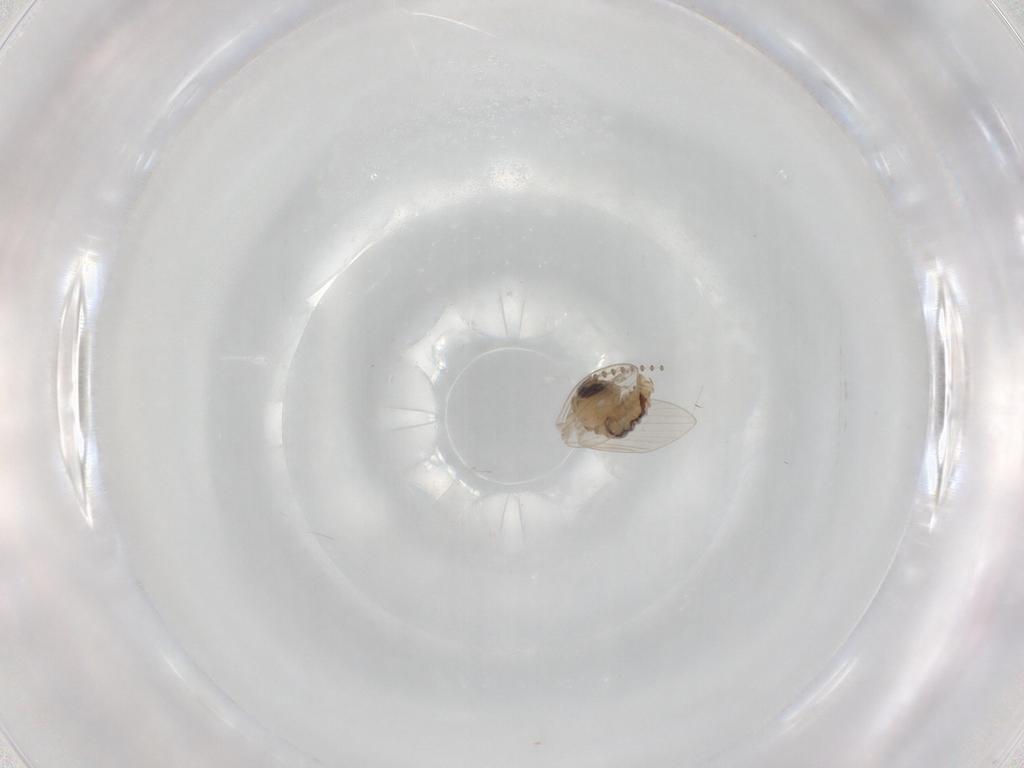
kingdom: Animalia
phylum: Arthropoda
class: Insecta
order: Diptera
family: Psychodidae
